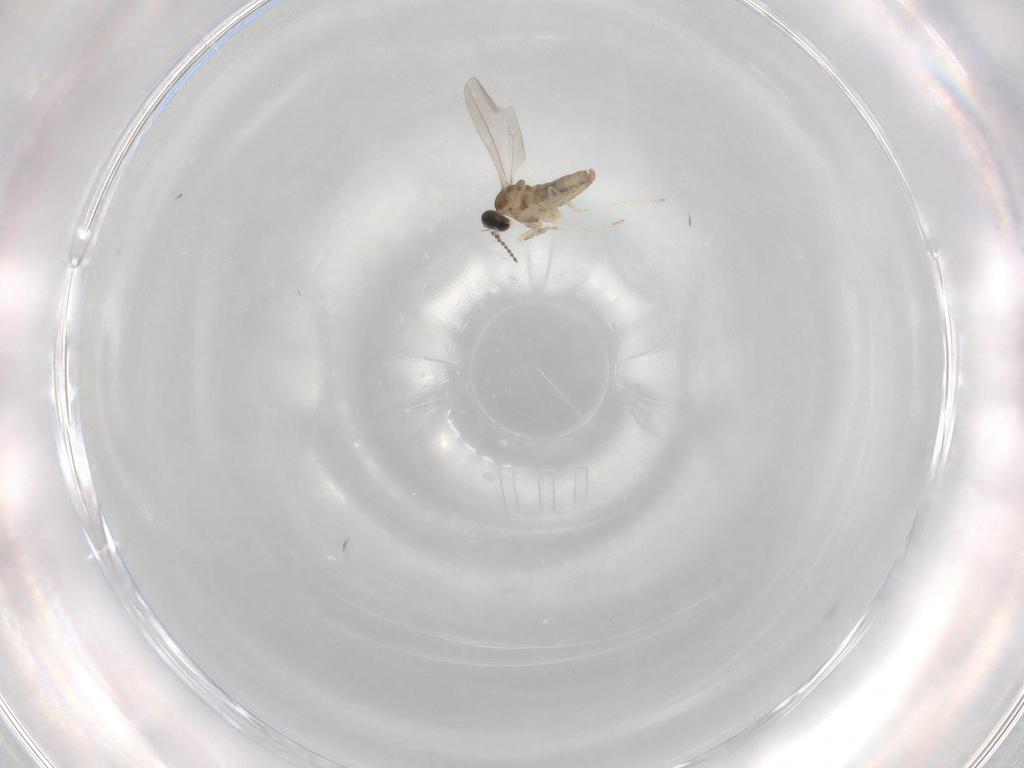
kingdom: Animalia
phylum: Arthropoda
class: Insecta
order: Diptera
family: Cecidomyiidae
